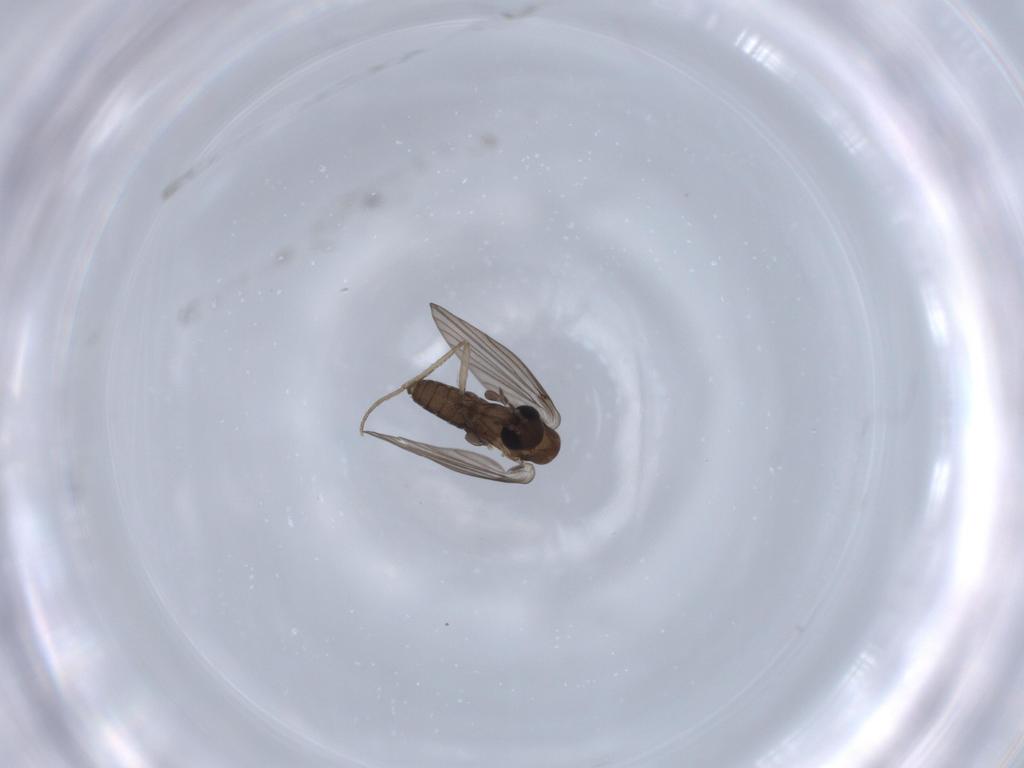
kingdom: Animalia
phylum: Arthropoda
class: Insecta
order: Diptera
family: Psychodidae
